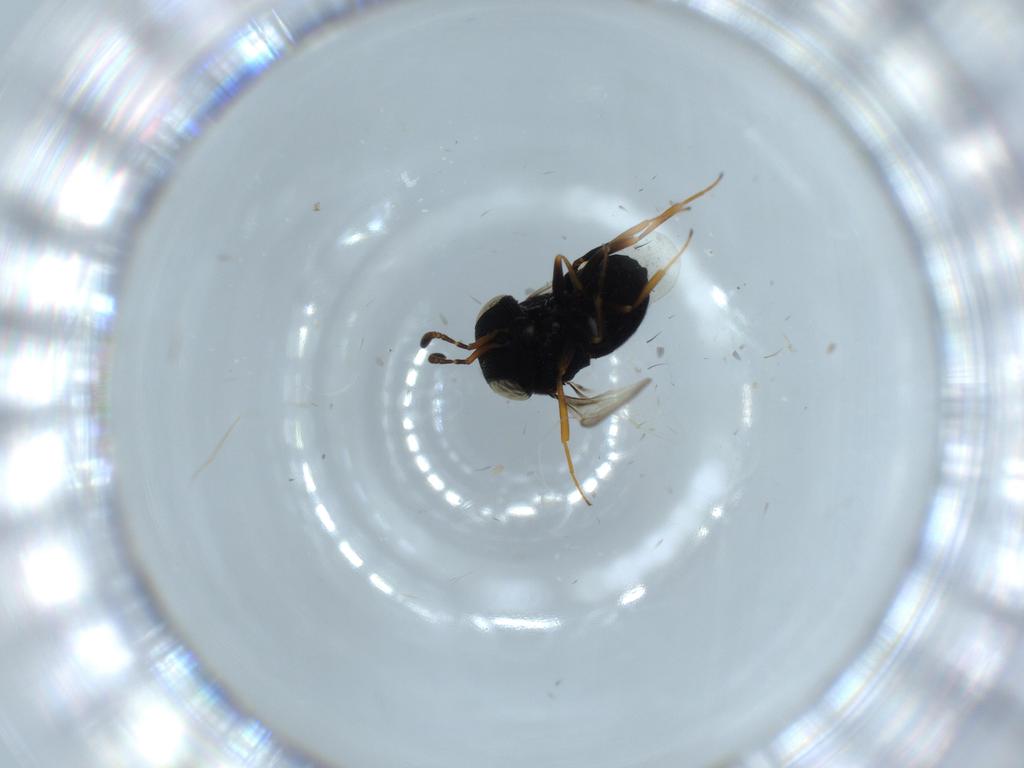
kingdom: Animalia
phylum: Arthropoda
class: Insecta
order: Hymenoptera
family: Scelionidae
